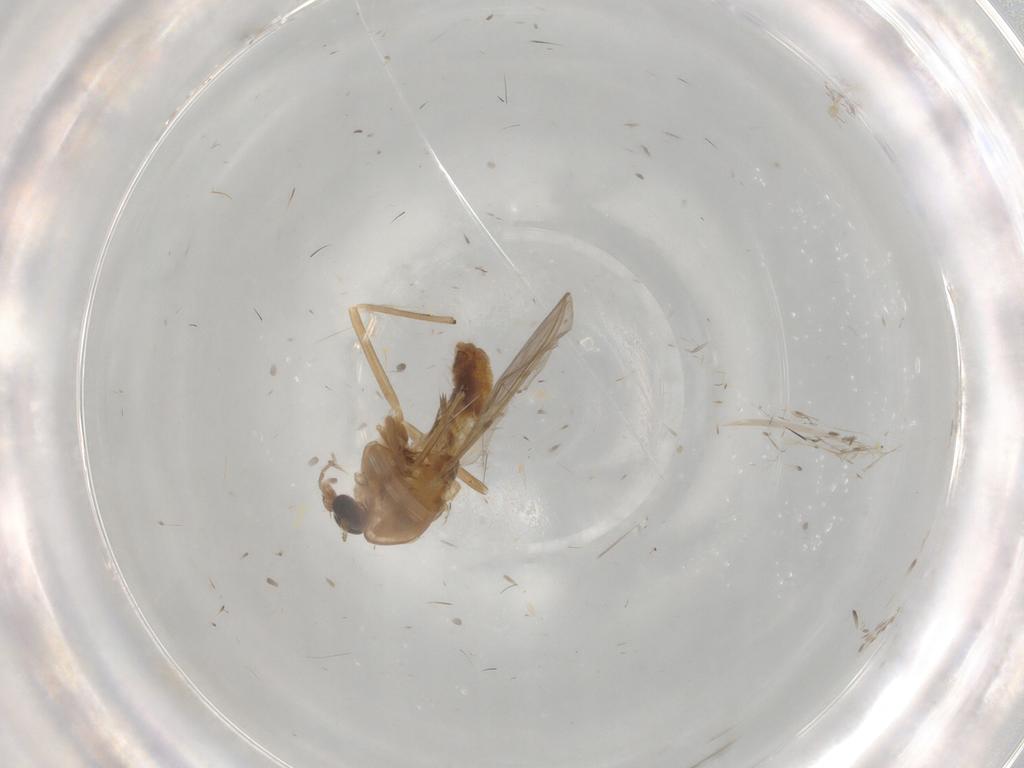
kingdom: Animalia
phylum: Arthropoda
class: Insecta
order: Diptera
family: Chironomidae
